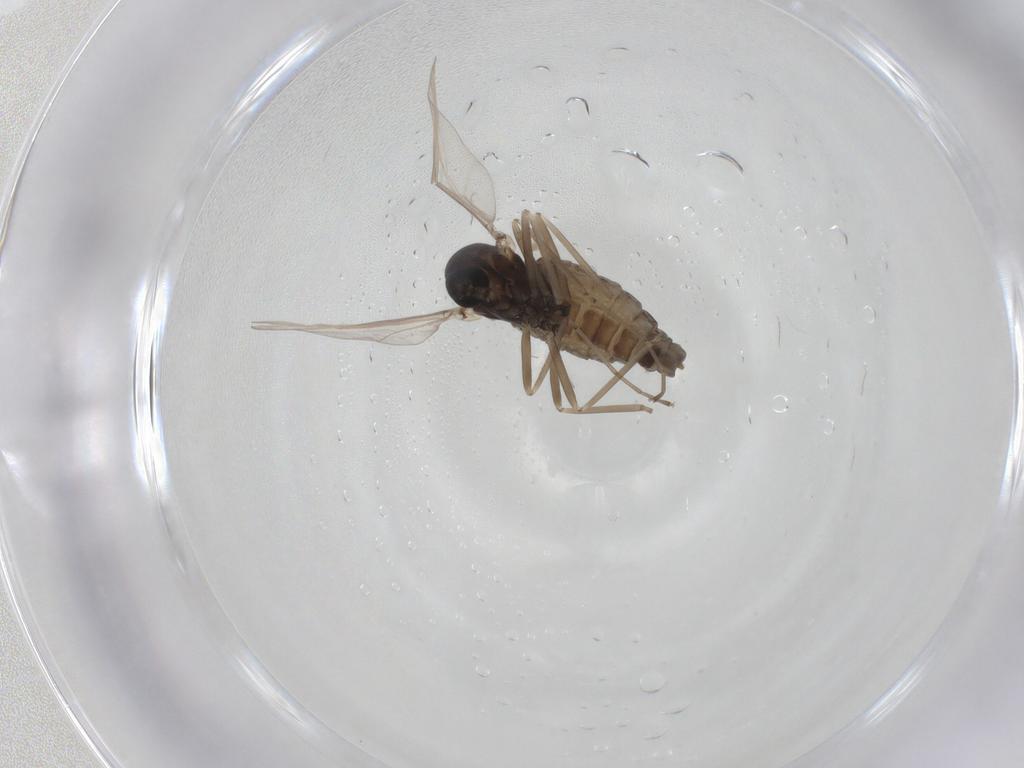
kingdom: Animalia
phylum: Arthropoda
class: Insecta
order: Diptera
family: Cecidomyiidae
